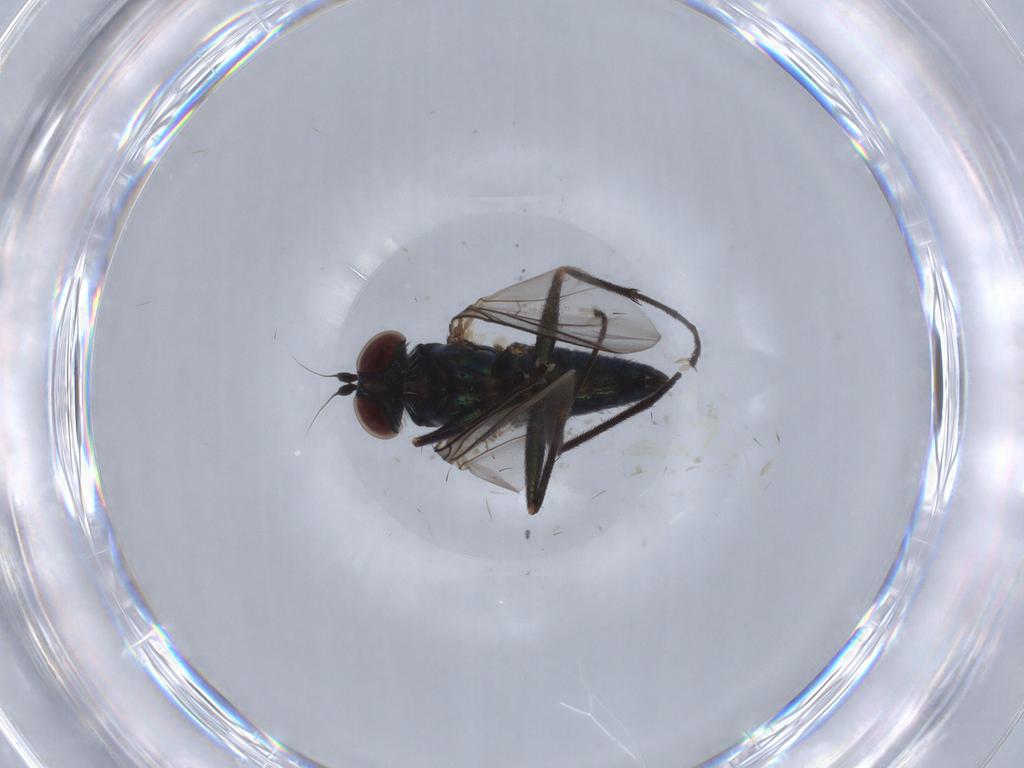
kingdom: Animalia
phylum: Arthropoda
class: Insecta
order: Diptera
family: Dolichopodidae
